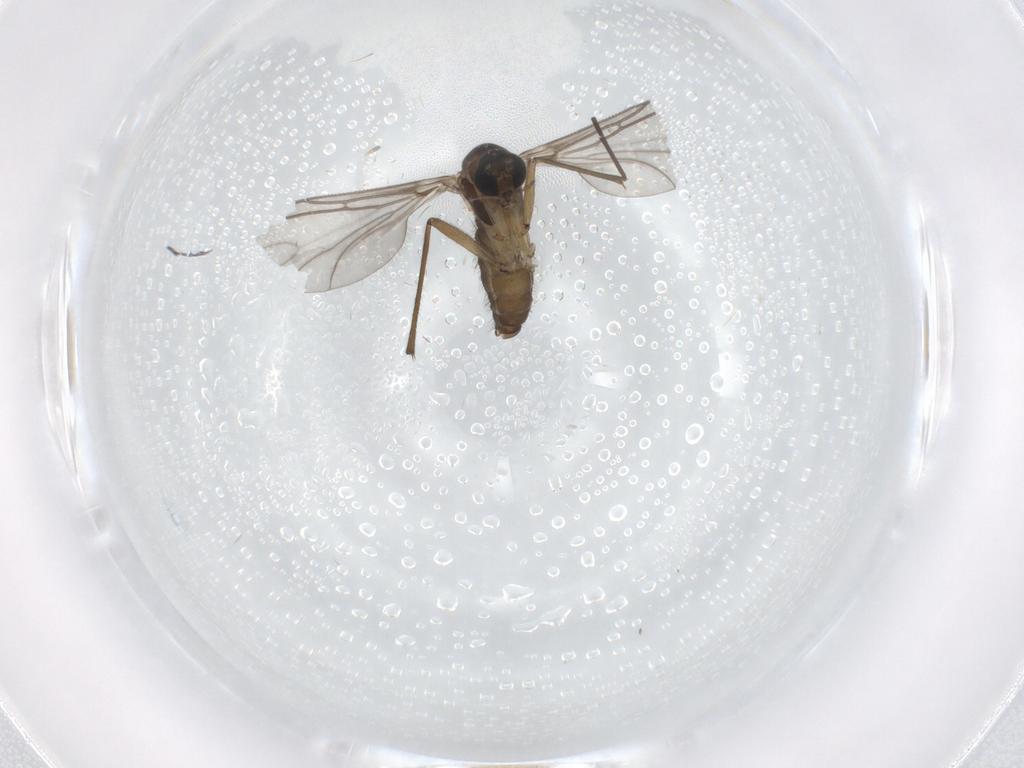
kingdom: Animalia
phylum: Arthropoda
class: Insecta
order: Diptera
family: Sciaridae
